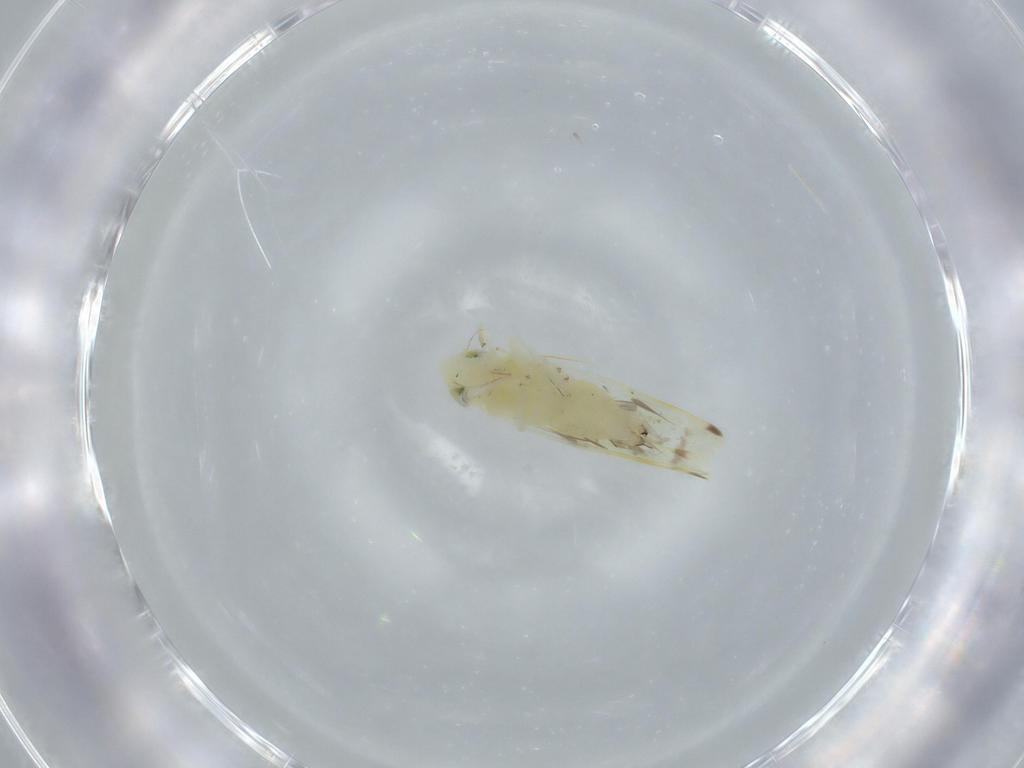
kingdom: Animalia
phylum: Arthropoda
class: Insecta
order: Hemiptera
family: Cicadellidae
